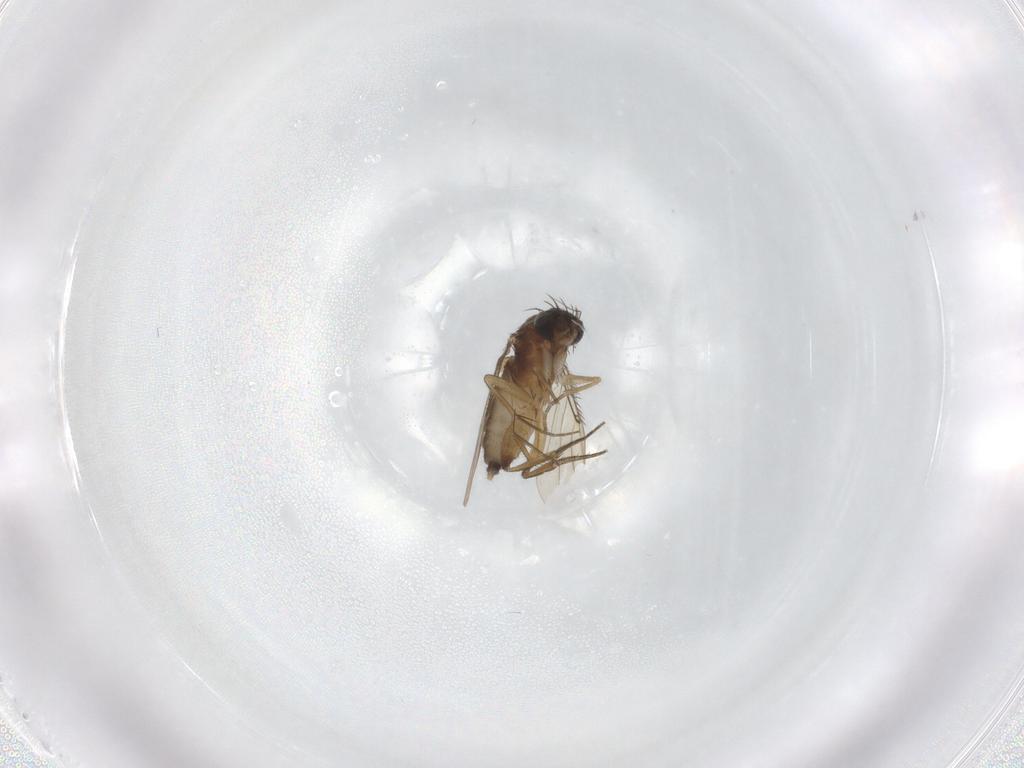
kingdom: Animalia
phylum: Arthropoda
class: Insecta
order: Diptera
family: Phoridae
